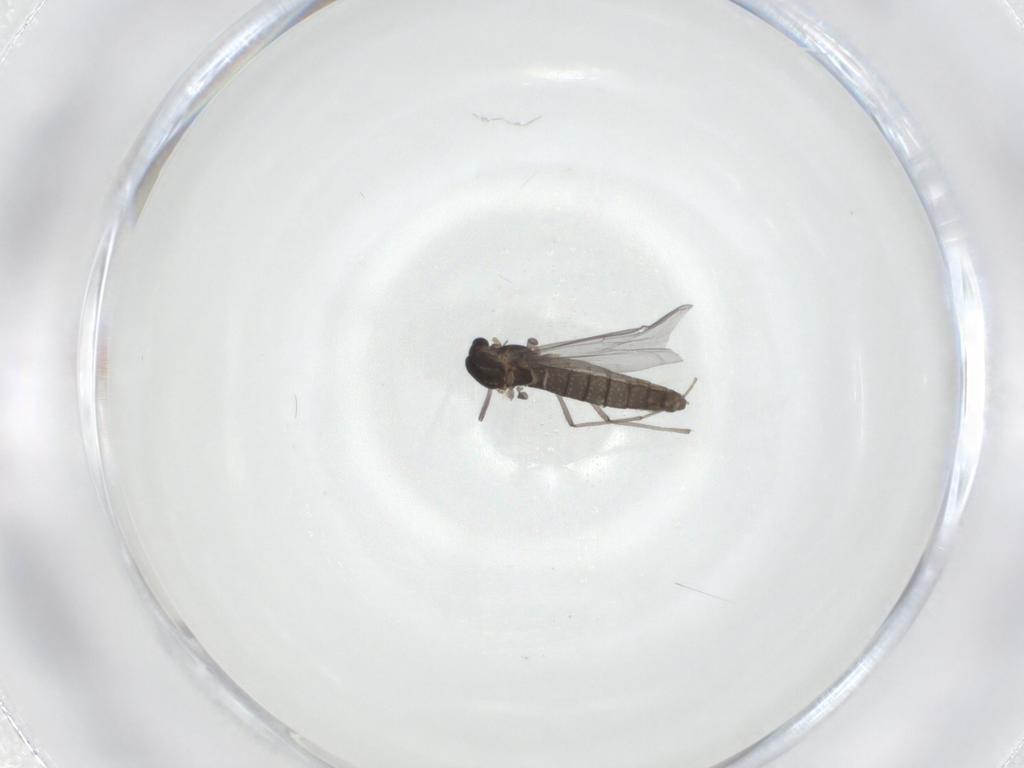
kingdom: Animalia
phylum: Arthropoda
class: Insecta
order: Diptera
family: Chironomidae
